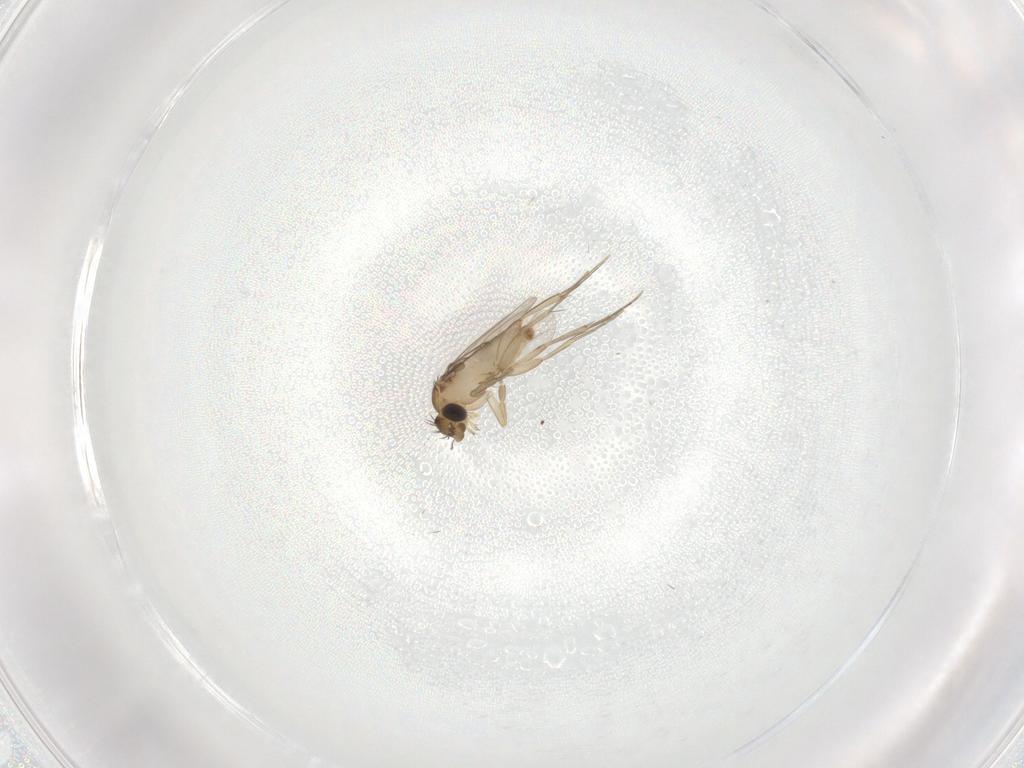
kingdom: Animalia
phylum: Arthropoda
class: Insecta
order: Diptera
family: Phoridae
